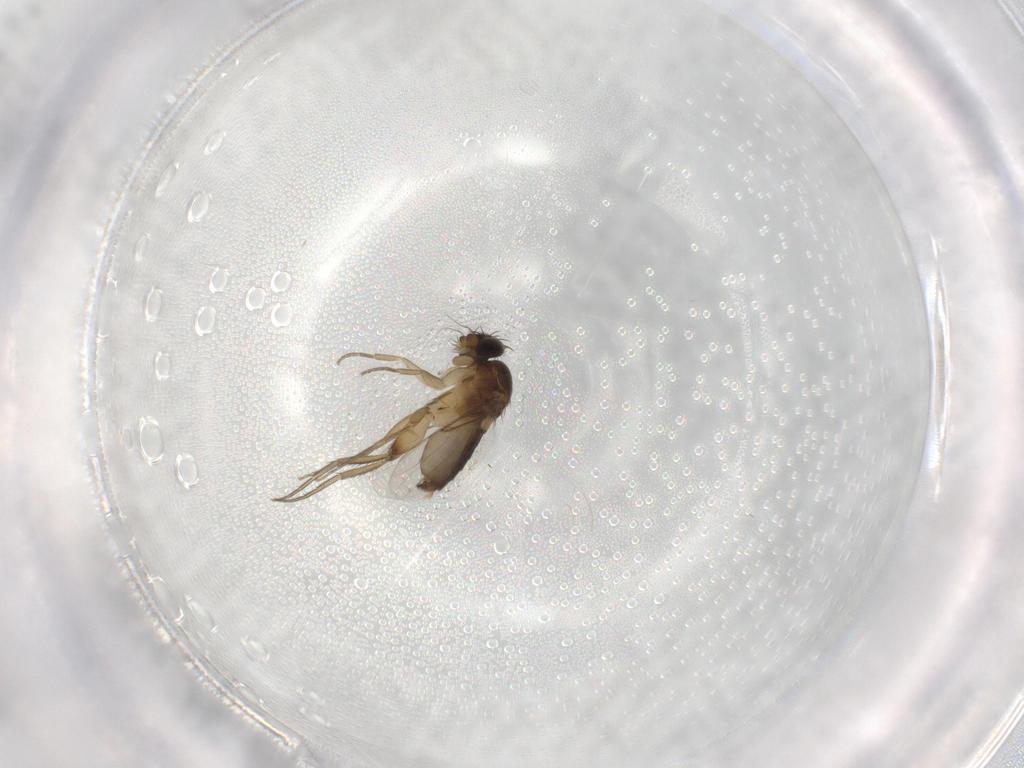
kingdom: Animalia
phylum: Arthropoda
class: Insecta
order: Diptera
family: Phoridae
